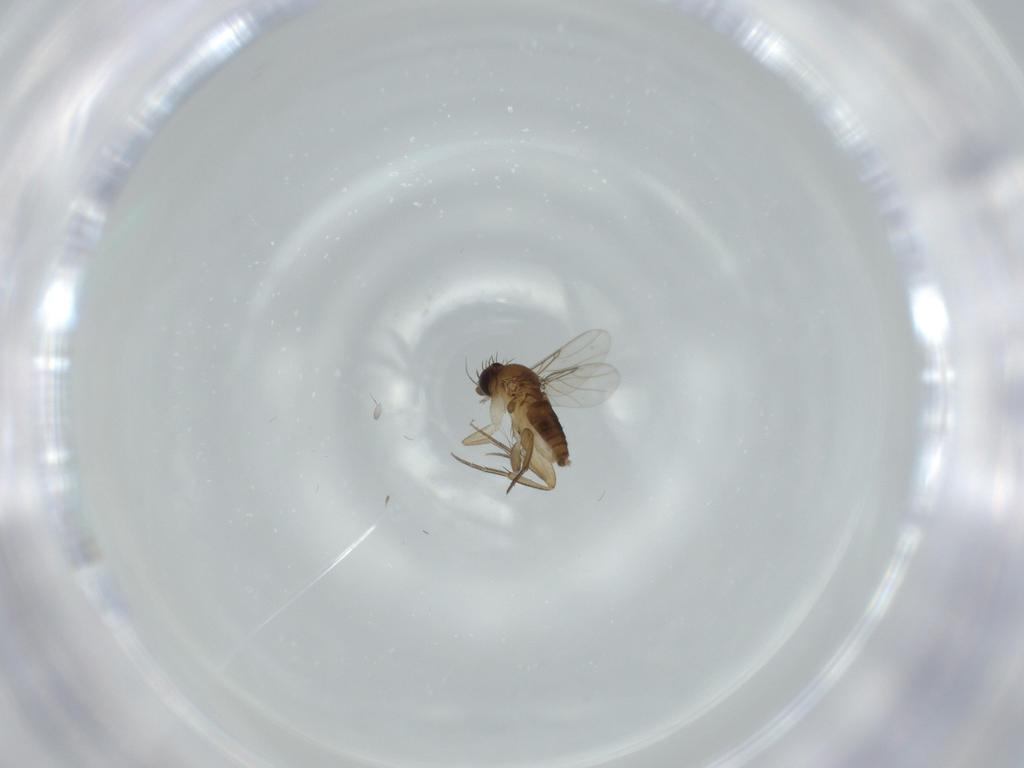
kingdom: Animalia
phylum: Arthropoda
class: Insecta
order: Diptera
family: Phoridae
